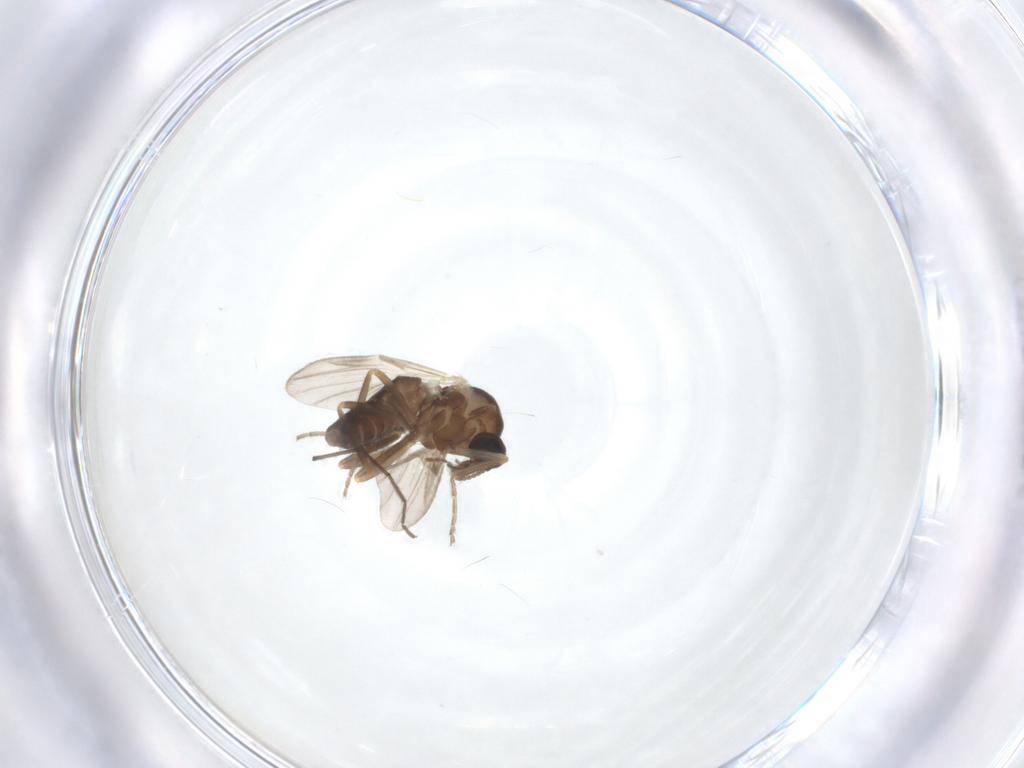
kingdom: Animalia
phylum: Arthropoda
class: Insecta
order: Diptera
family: Ceratopogonidae
